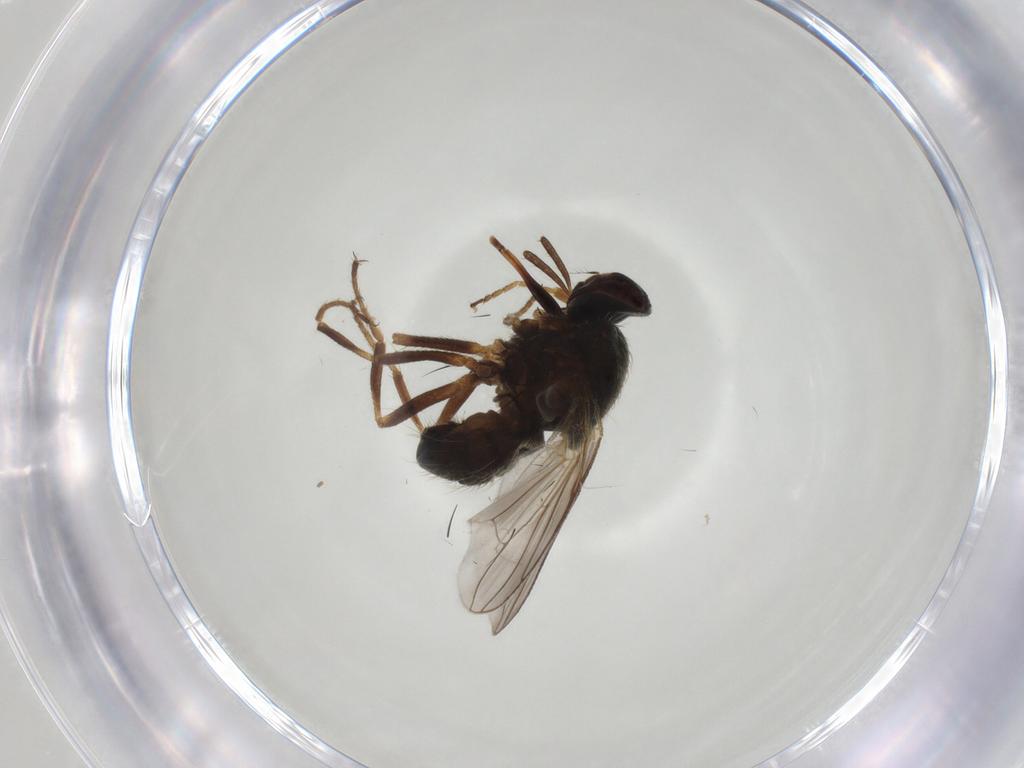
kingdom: Animalia
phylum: Arthropoda
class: Insecta
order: Diptera
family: Muscidae
